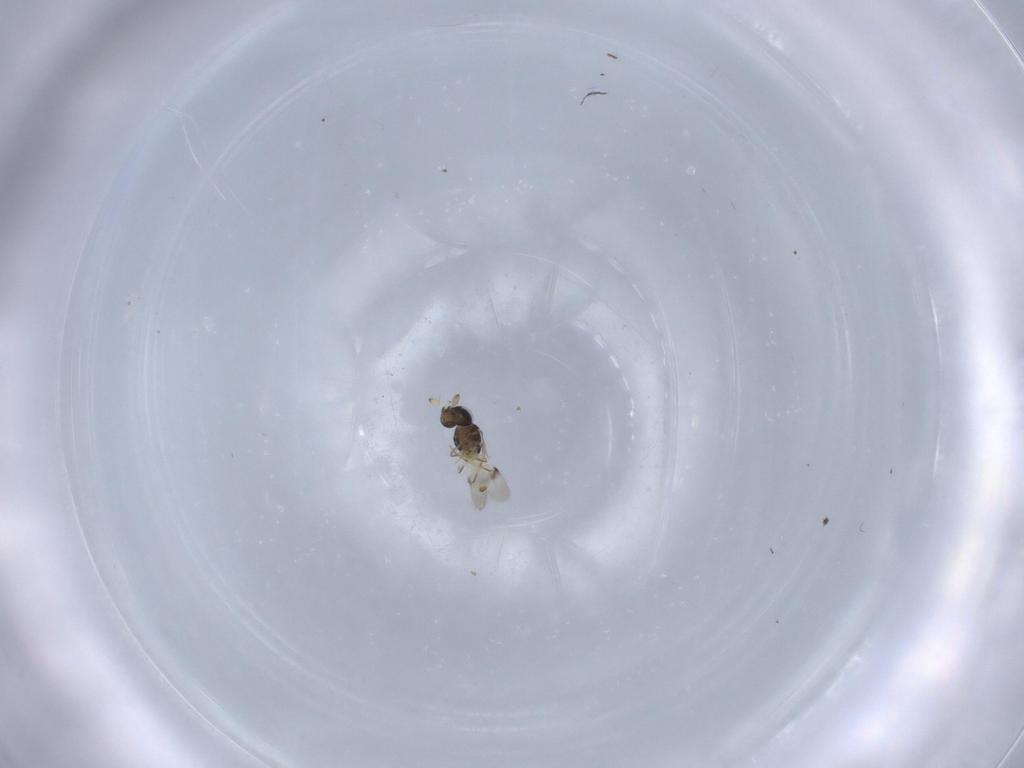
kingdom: Animalia
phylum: Arthropoda
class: Insecta
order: Hymenoptera
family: Scelionidae
